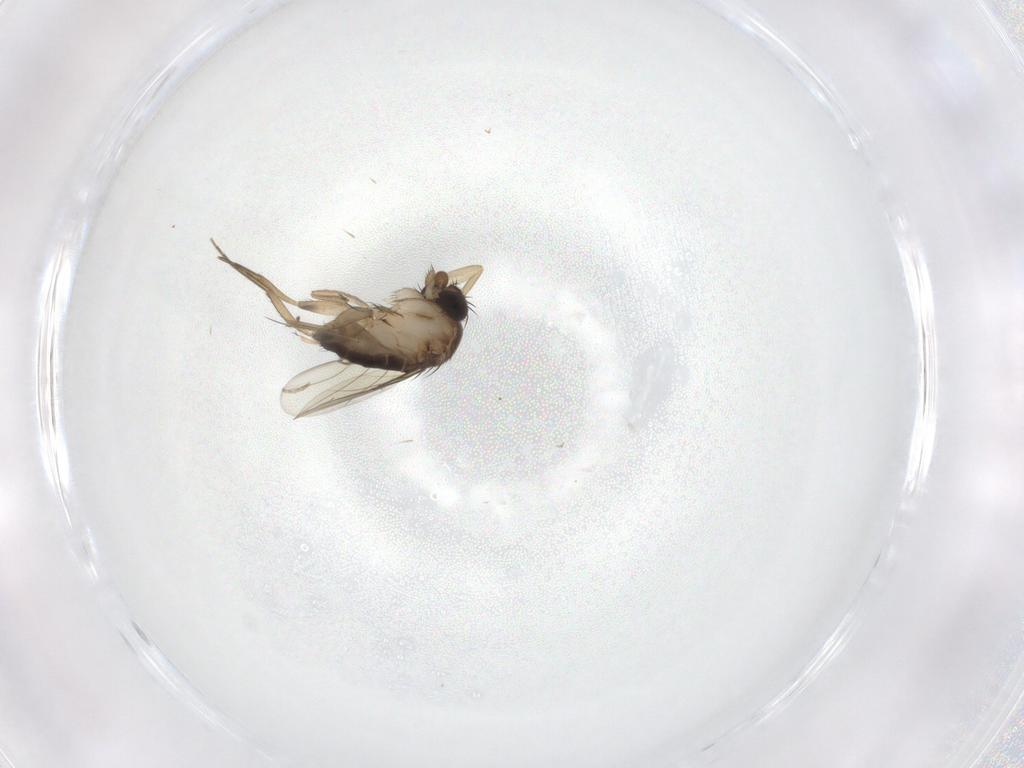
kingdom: Animalia
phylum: Arthropoda
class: Insecta
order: Diptera
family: Phoridae
